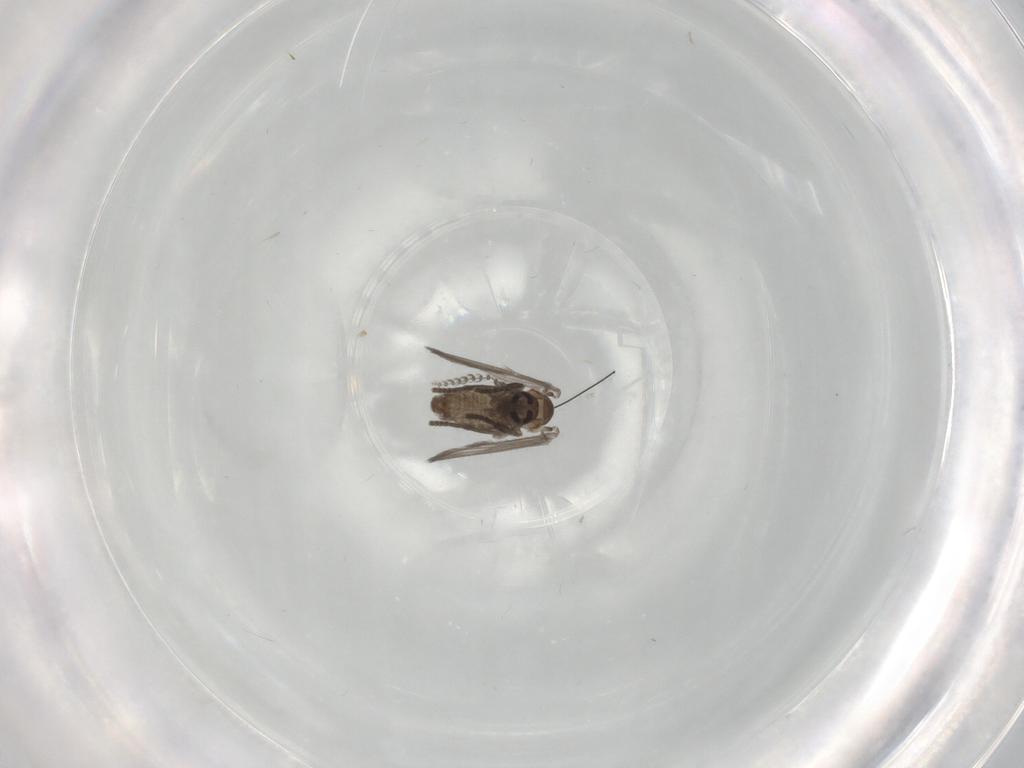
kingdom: Animalia
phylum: Arthropoda
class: Insecta
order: Diptera
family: Psychodidae
